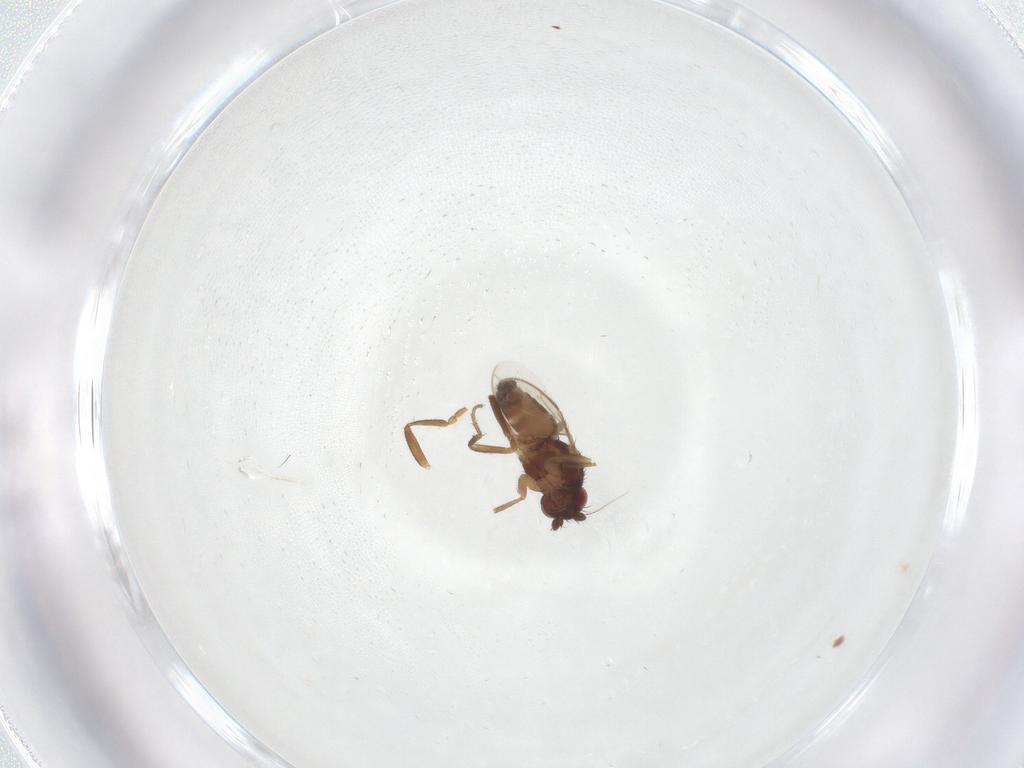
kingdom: Animalia
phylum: Arthropoda
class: Insecta
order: Diptera
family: Sphaeroceridae
